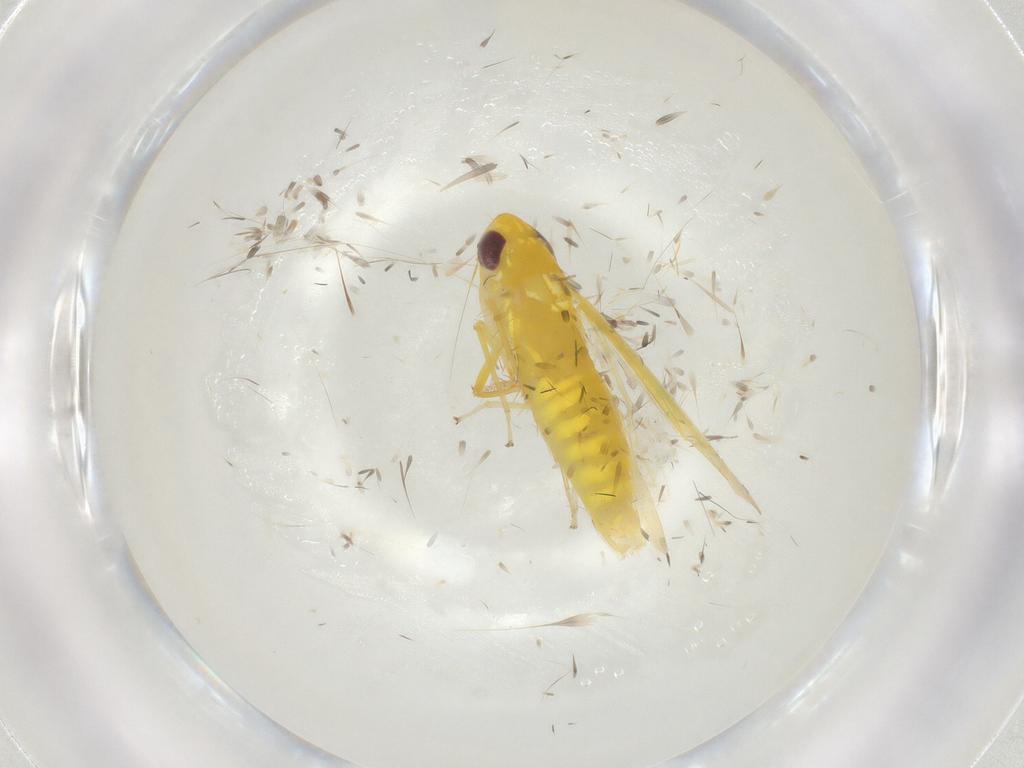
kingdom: Animalia
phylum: Arthropoda
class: Insecta
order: Hemiptera
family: Cicadellidae
